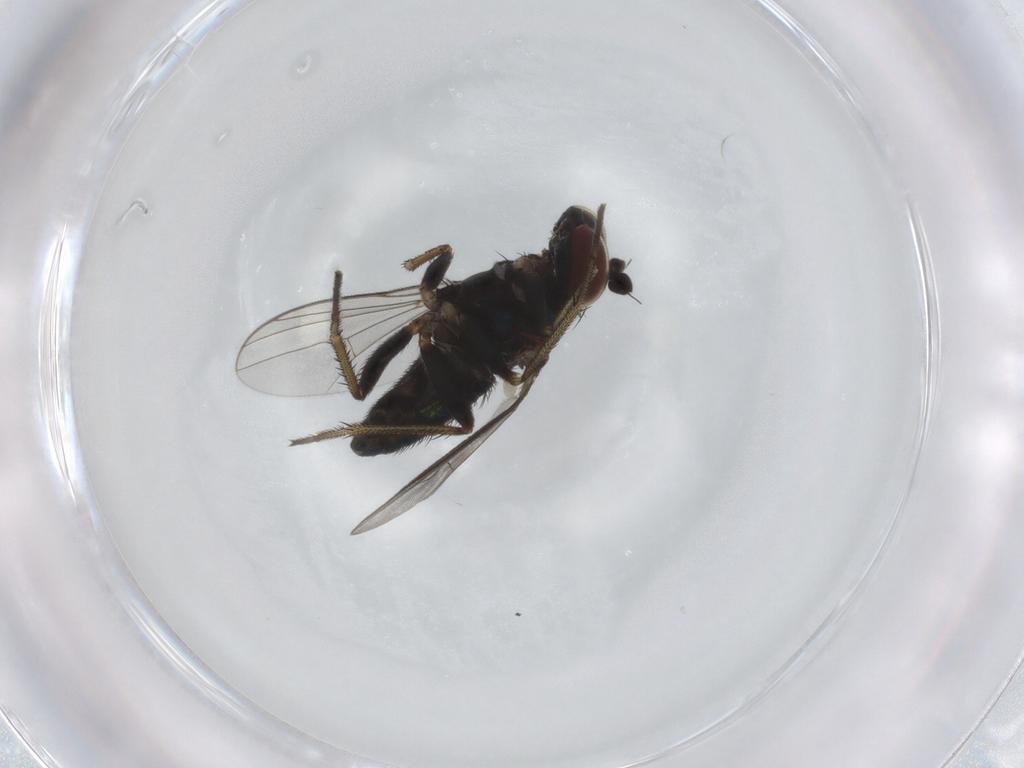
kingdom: Animalia
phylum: Arthropoda
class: Insecta
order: Diptera
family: Dolichopodidae
